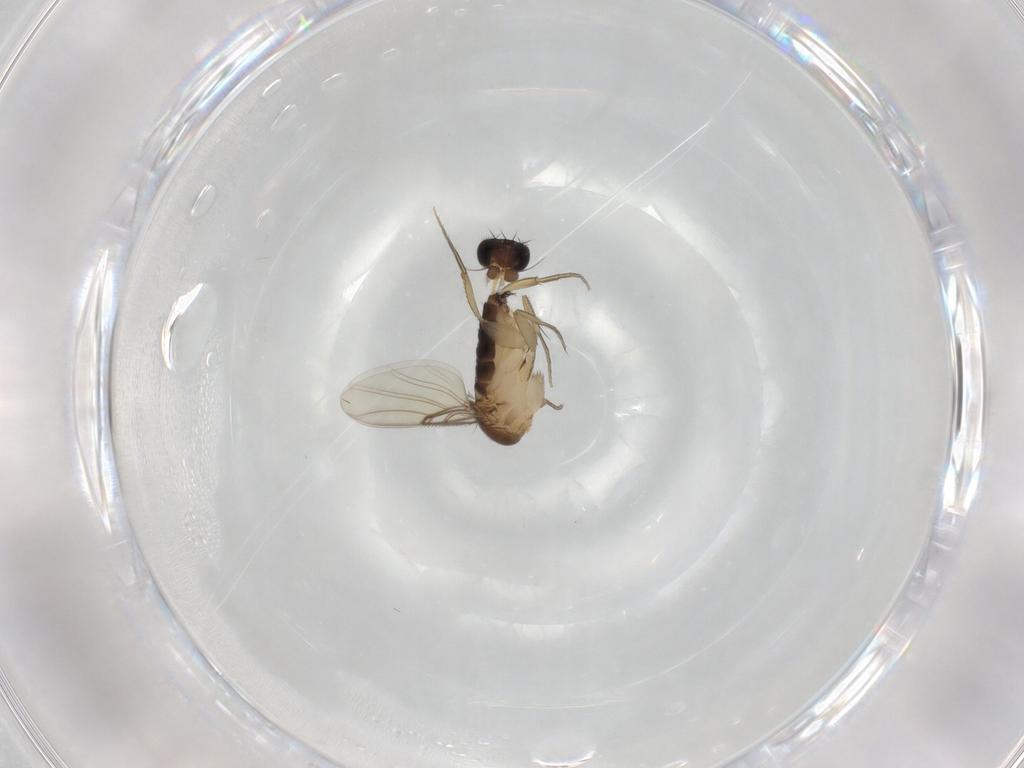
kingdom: Animalia
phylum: Arthropoda
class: Insecta
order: Diptera
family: Phoridae
